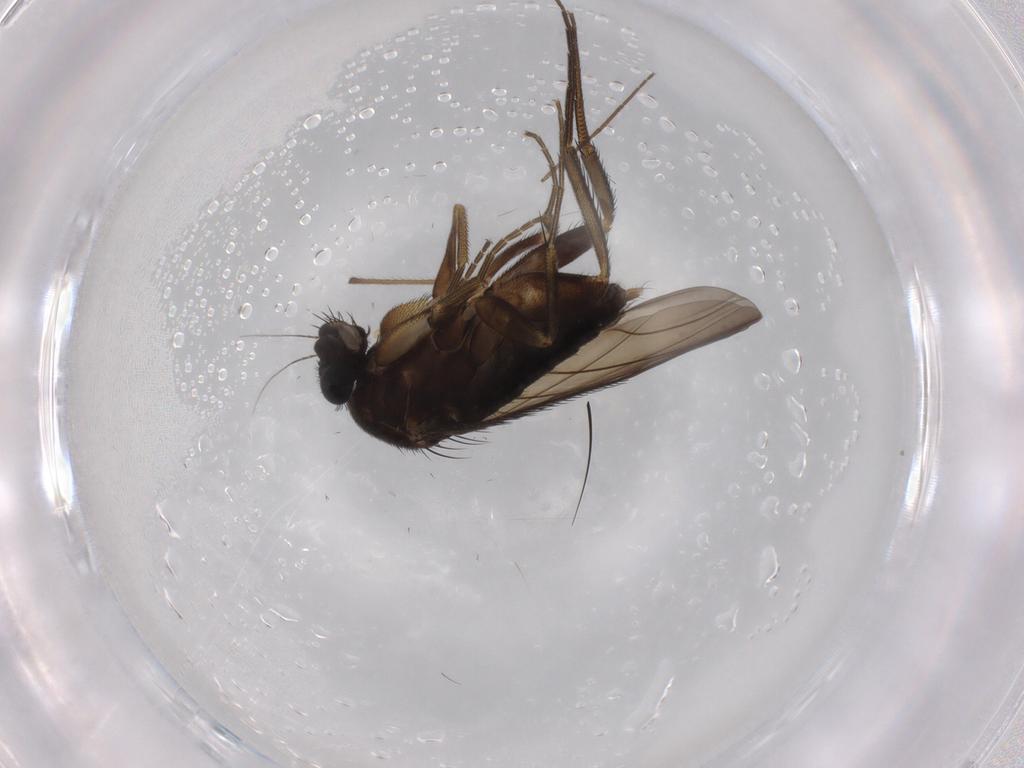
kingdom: Animalia
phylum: Arthropoda
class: Insecta
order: Diptera
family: Phoridae
